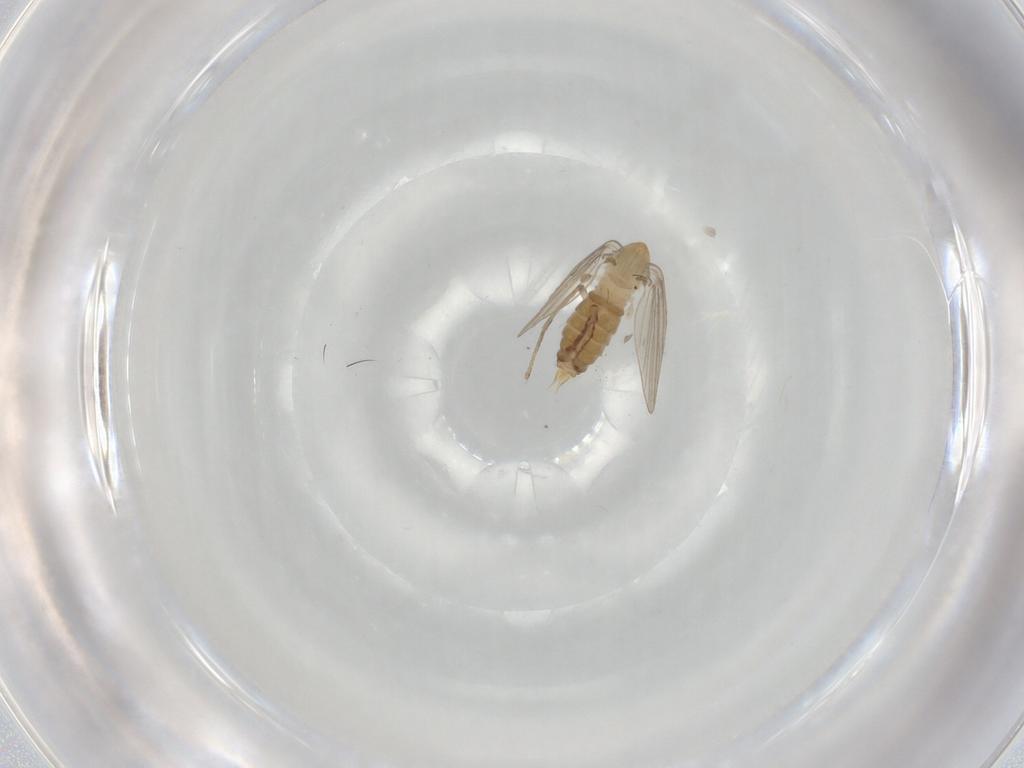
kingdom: Animalia
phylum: Arthropoda
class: Insecta
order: Diptera
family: Psychodidae
